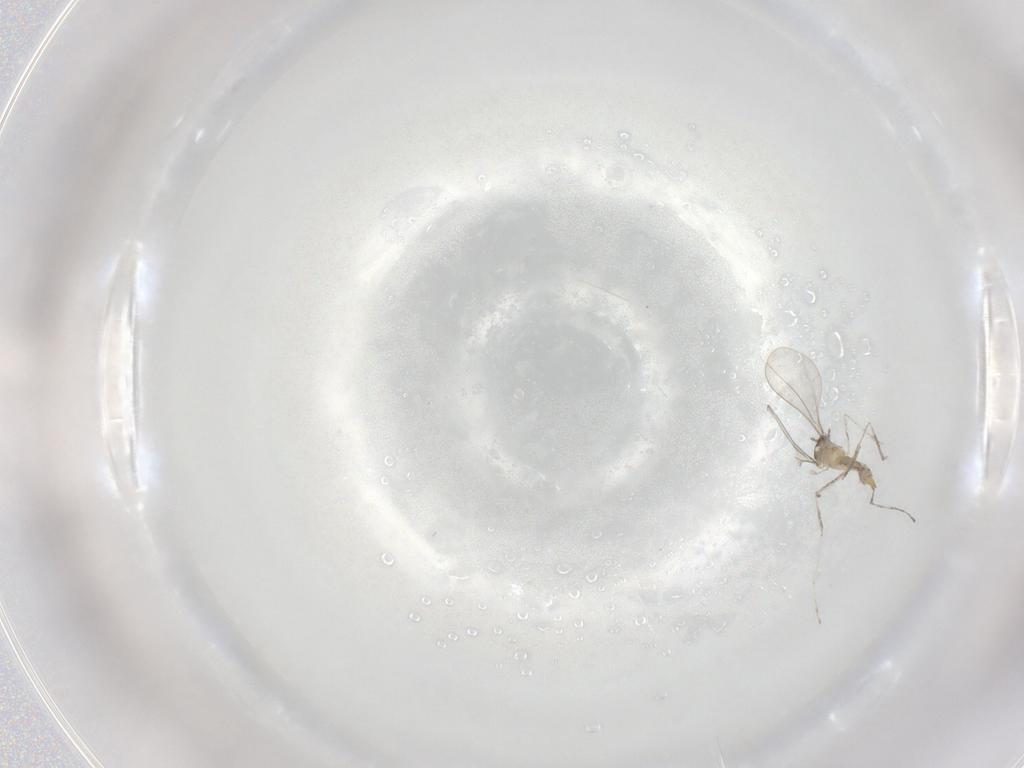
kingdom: Animalia
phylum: Arthropoda
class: Insecta
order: Diptera
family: Cecidomyiidae
